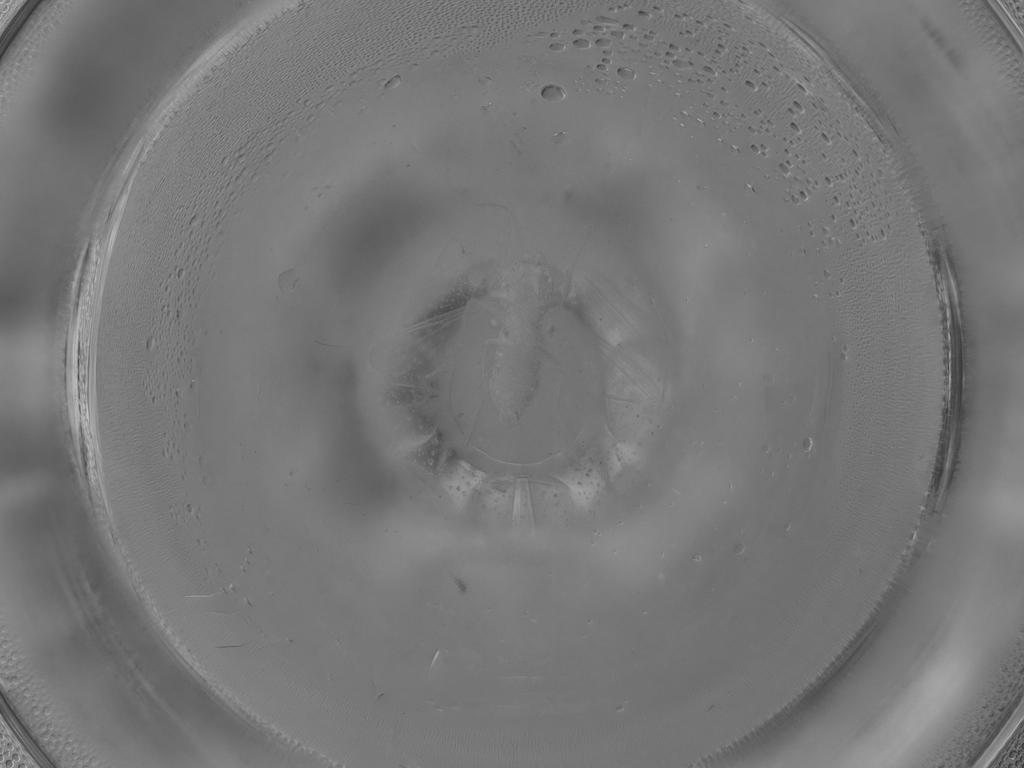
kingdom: Animalia
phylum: Arthropoda
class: Insecta
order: Diptera
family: Ceratopogonidae
